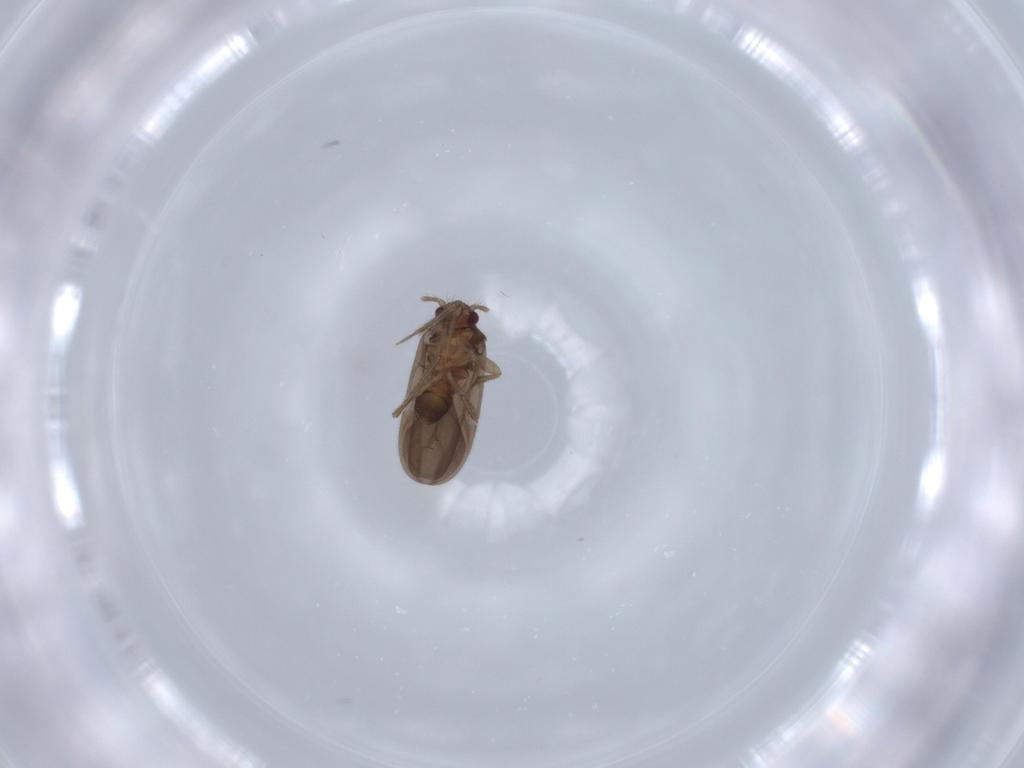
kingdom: Animalia
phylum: Arthropoda
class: Insecta
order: Hemiptera
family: Ceratocombidae
